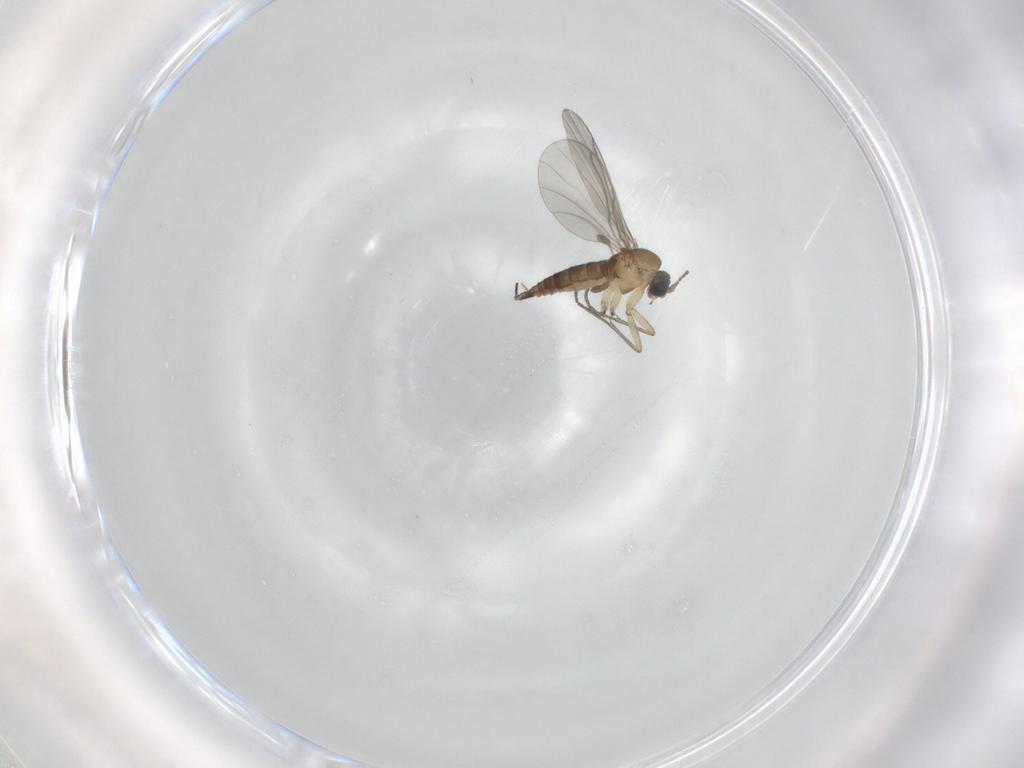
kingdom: Animalia
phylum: Arthropoda
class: Insecta
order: Diptera
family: Sciaridae
